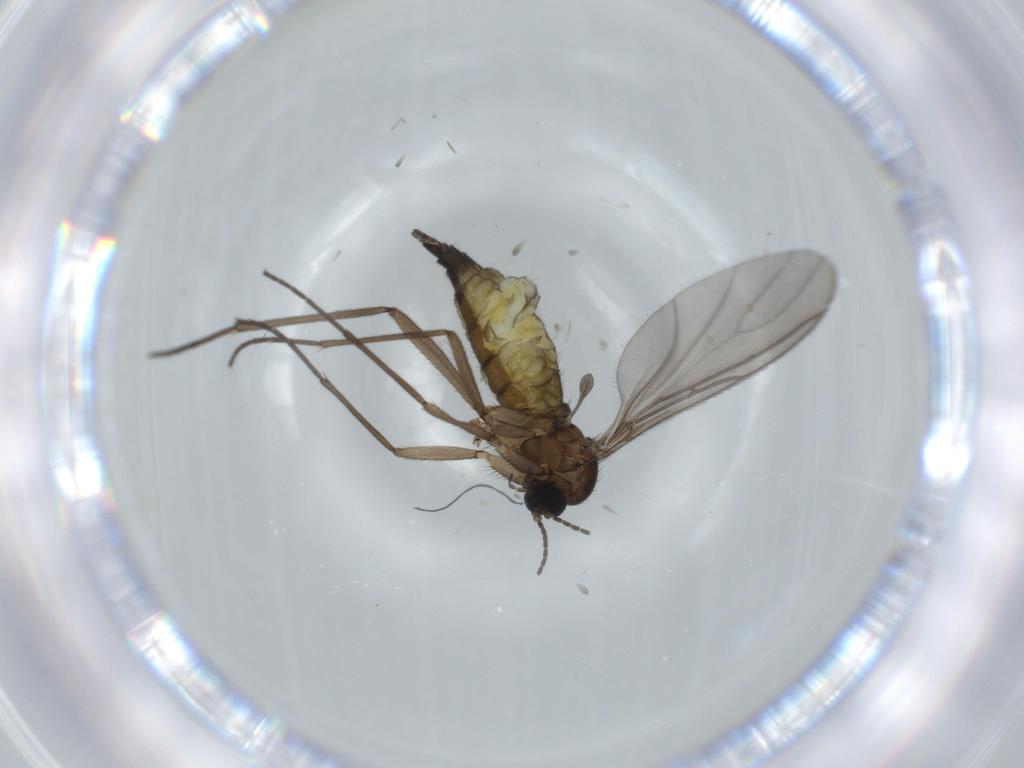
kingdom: Animalia
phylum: Arthropoda
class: Insecta
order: Diptera
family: Sciaridae
